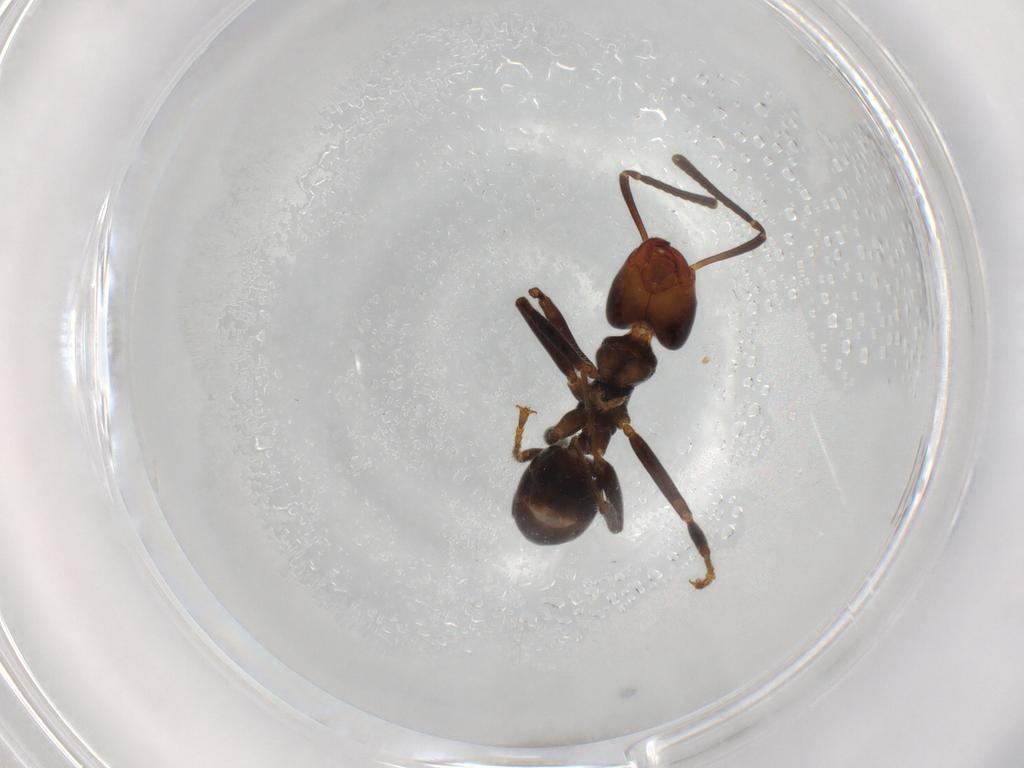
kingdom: Animalia
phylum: Arthropoda
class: Insecta
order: Hymenoptera
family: Formicidae
